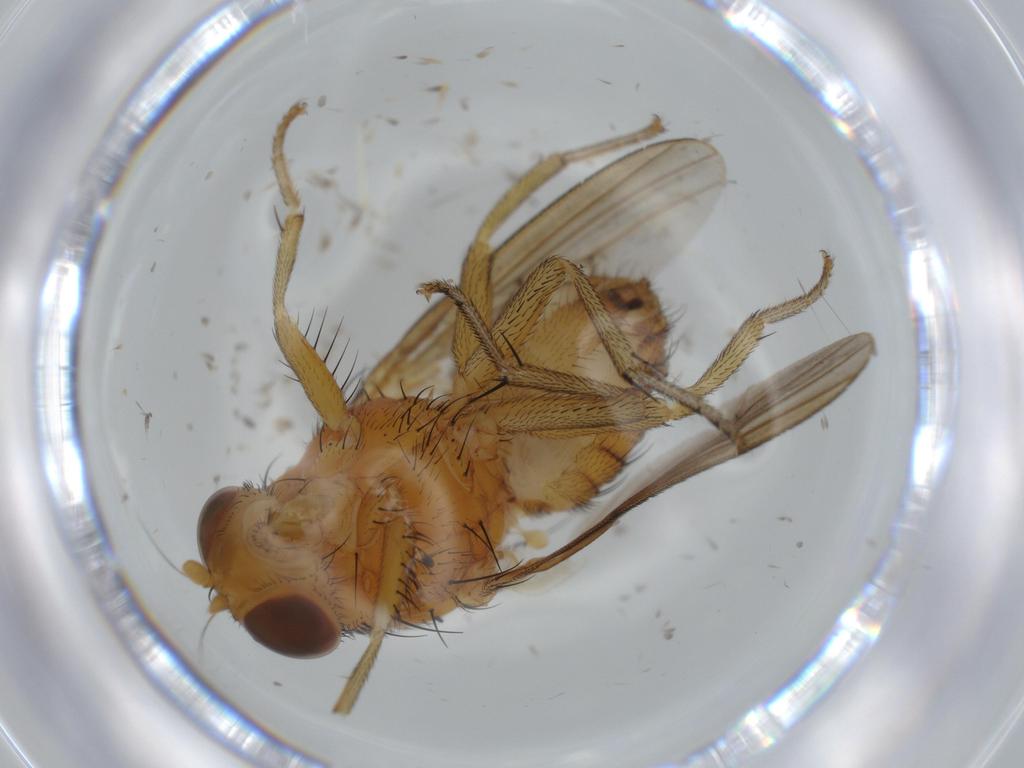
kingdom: Animalia
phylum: Arthropoda
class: Insecta
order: Diptera
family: Sciaridae
